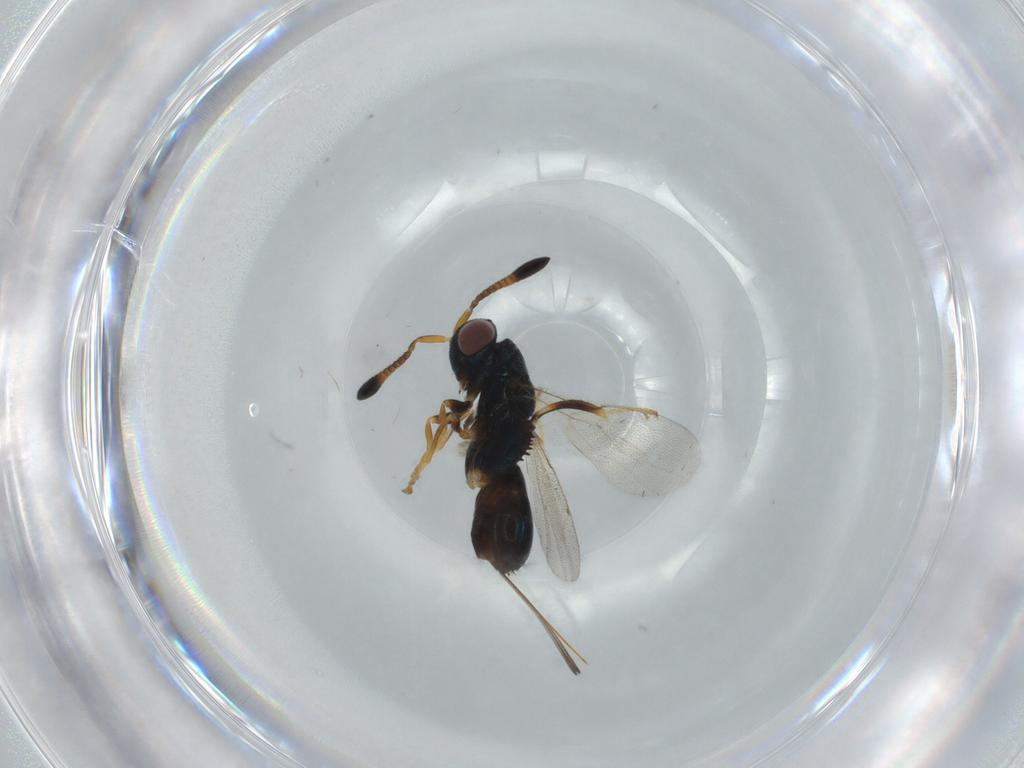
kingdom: Animalia
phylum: Arthropoda
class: Insecta
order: Hymenoptera
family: Torymidae
